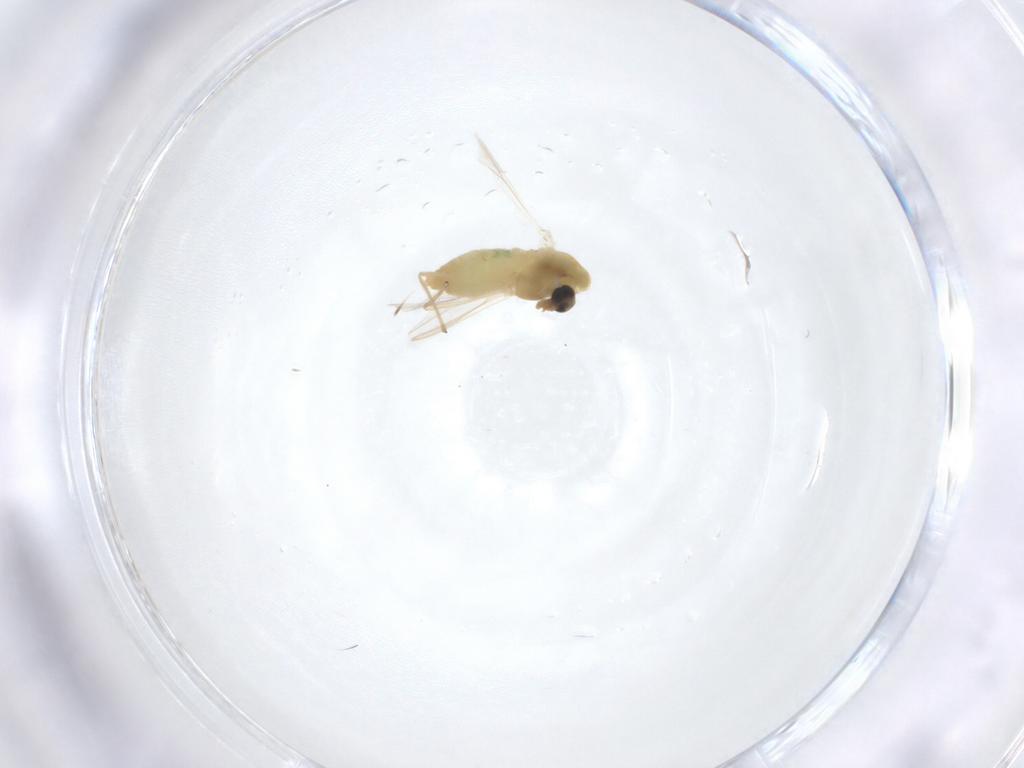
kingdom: Animalia
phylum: Arthropoda
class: Insecta
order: Diptera
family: Chironomidae
